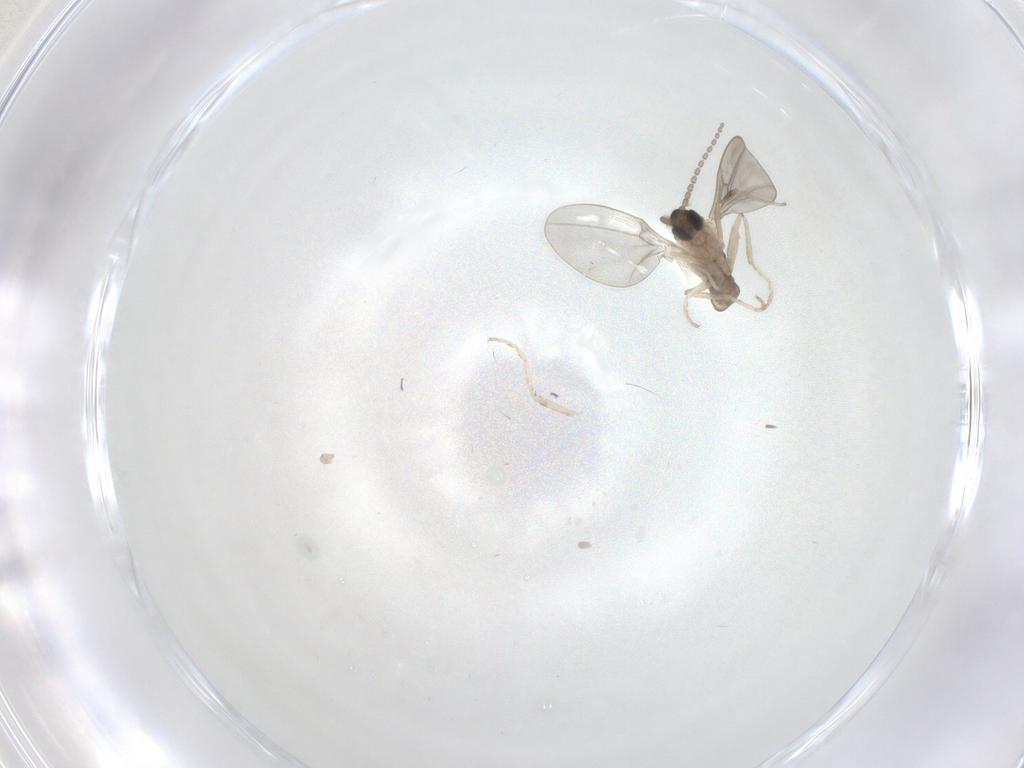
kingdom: Animalia
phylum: Arthropoda
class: Insecta
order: Diptera
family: Cecidomyiidae
